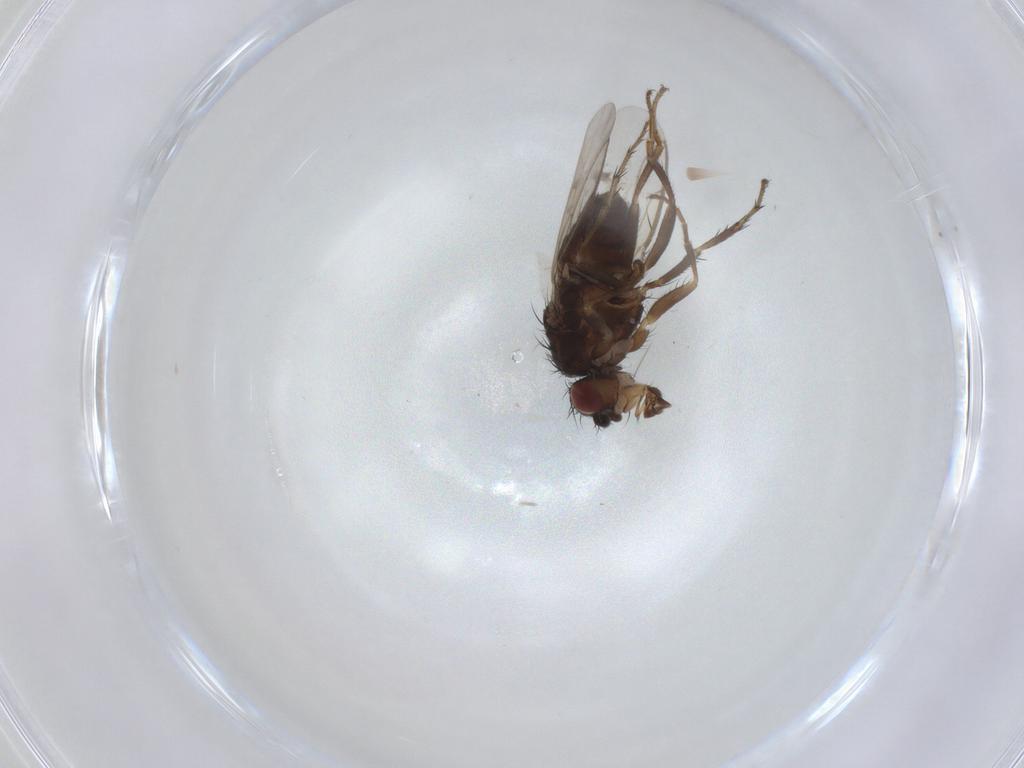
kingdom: Animalia
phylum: Arthropoda
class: Insecta
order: Diptera
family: Sphaeroceridae
